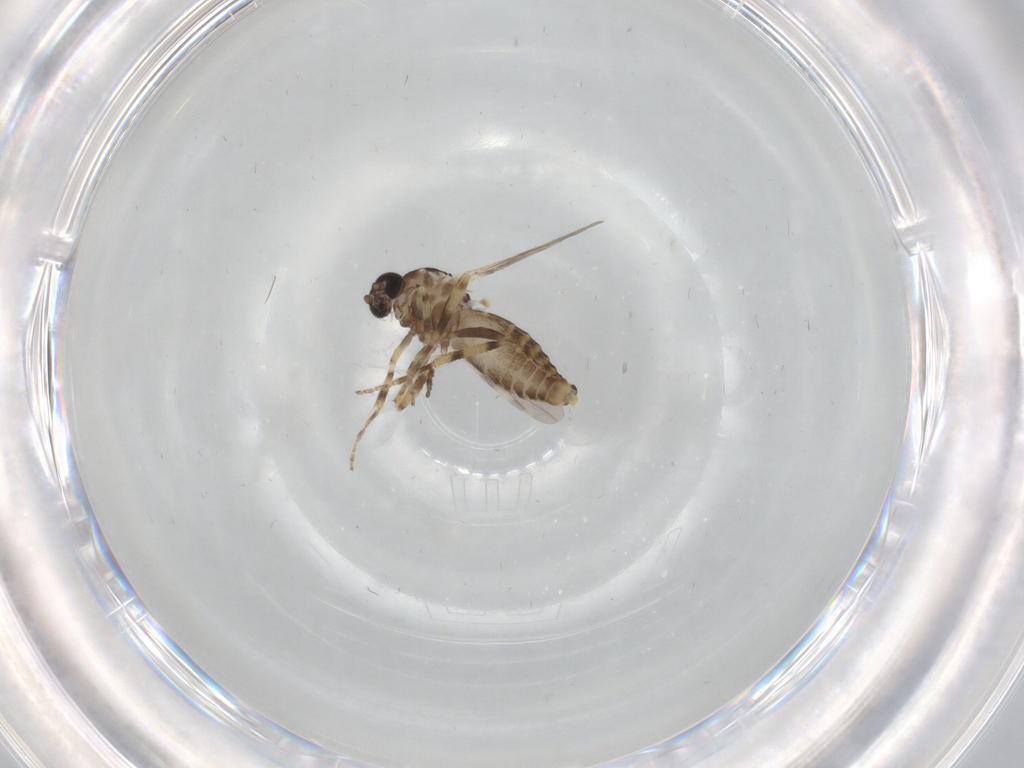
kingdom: Animalia
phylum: Arthropoda
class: Insecta
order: Diptera
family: Ceratopogonidae
